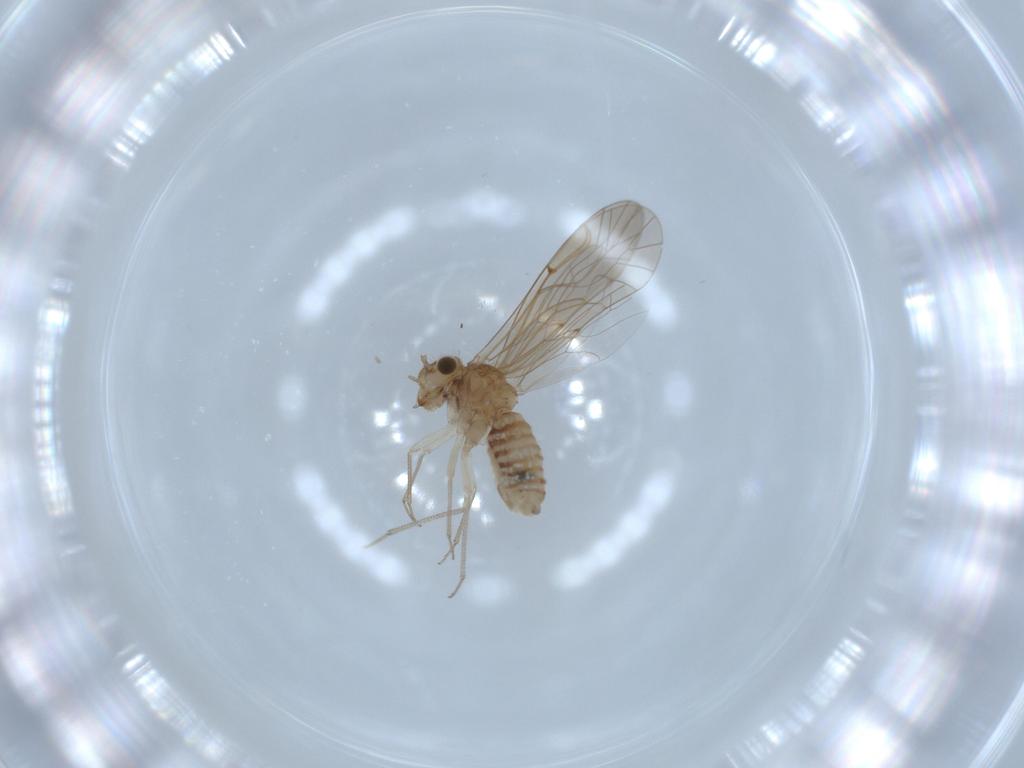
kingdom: Animalia
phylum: Arthropoda
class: Insecta
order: Psocodea
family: Lachesillidae
